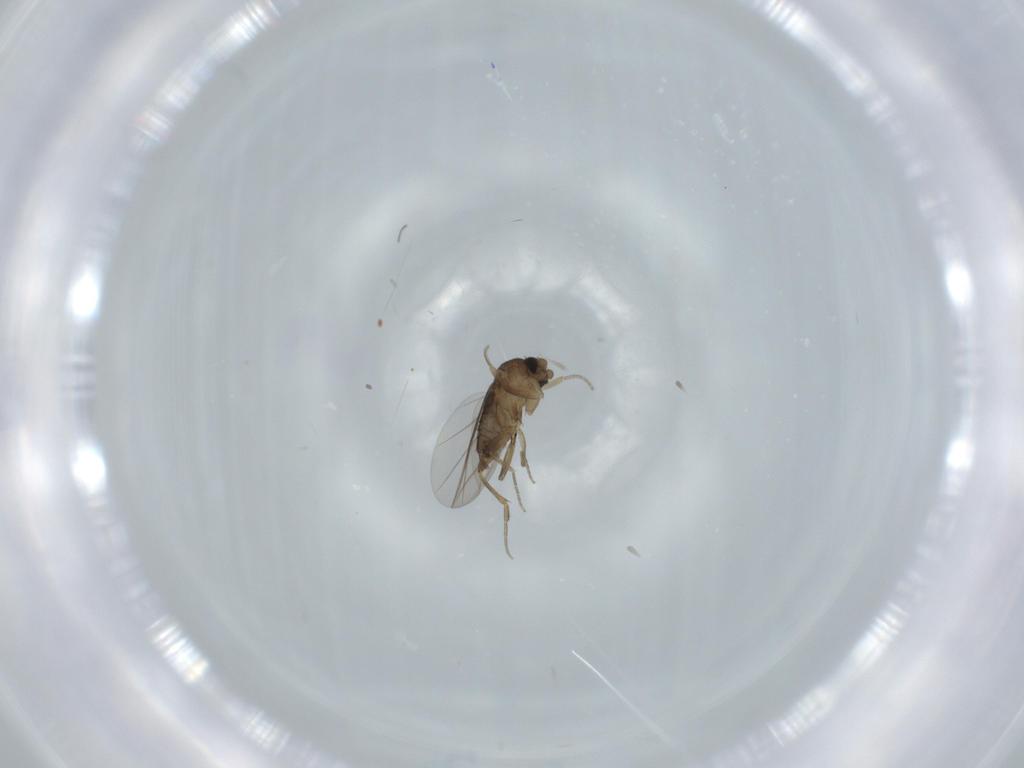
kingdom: Animalia
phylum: Arthropoda
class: Insecta
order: Diptera
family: Phoridae
